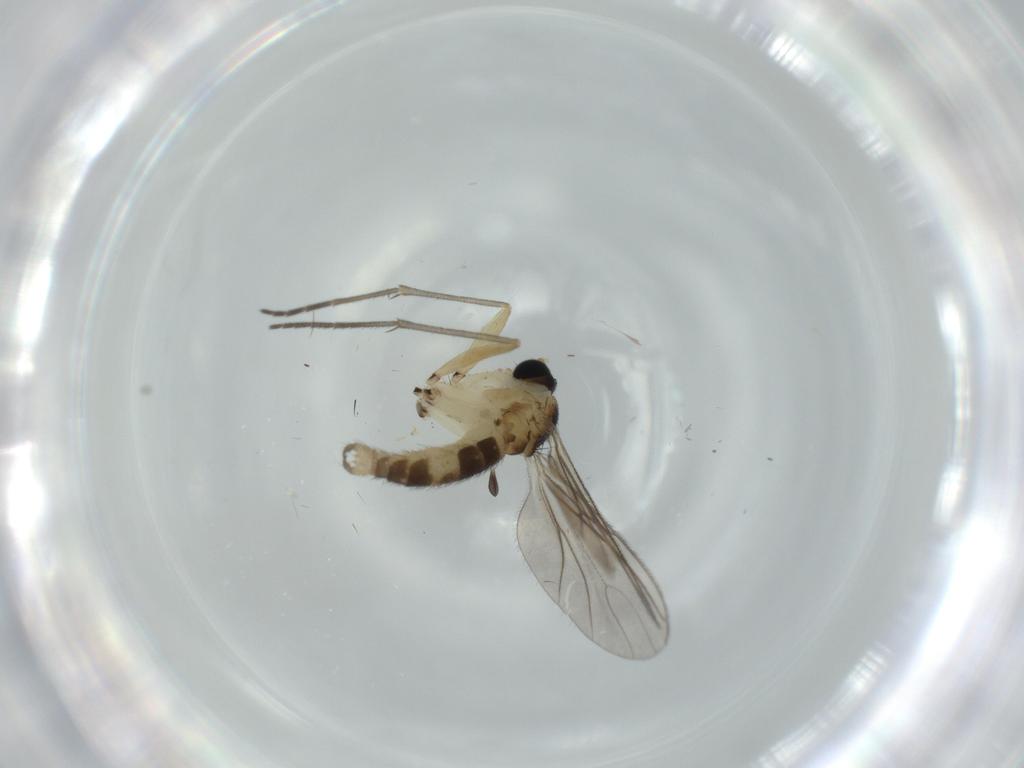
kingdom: Animalia
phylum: Arthropoda
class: Insecta
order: Diptera
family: Sciaridae
